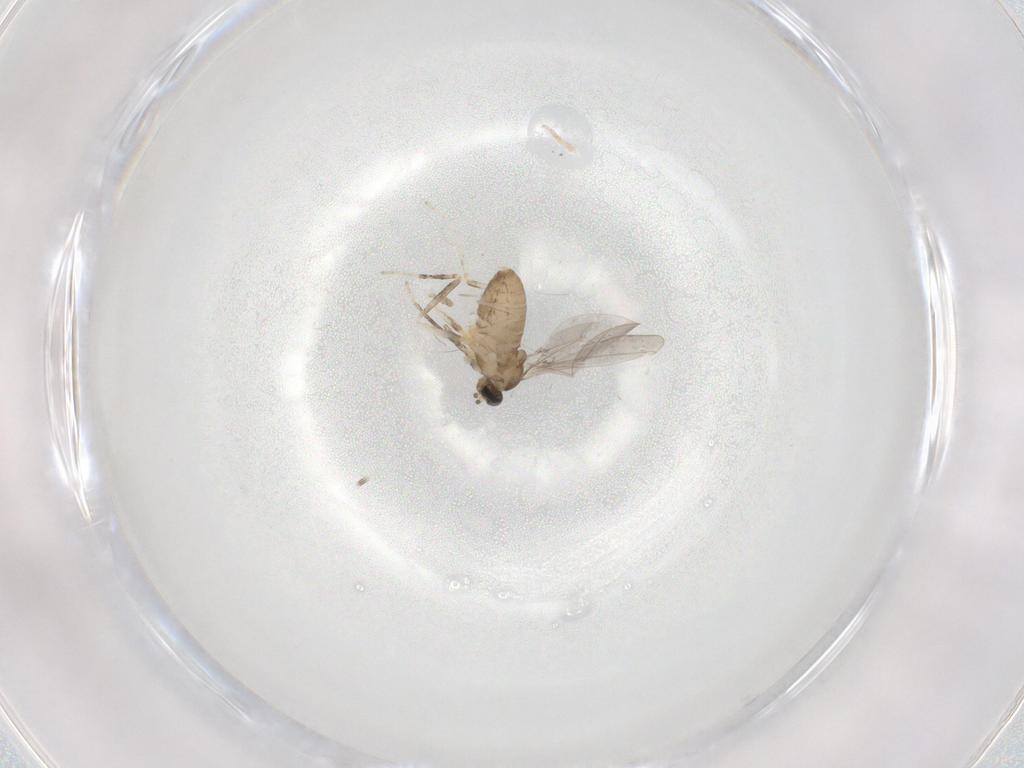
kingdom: Animalia
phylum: Arthropoda
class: Insecta
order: Diptera
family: Cecidomyiidae
